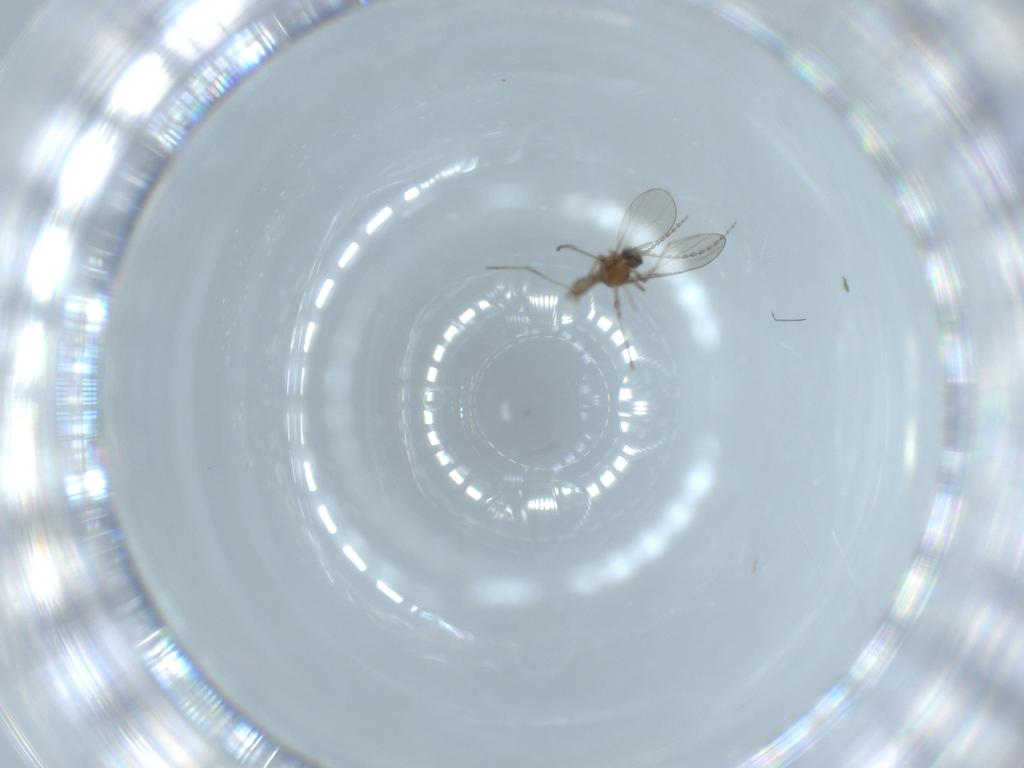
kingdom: Animalia
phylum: Arthropoda
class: Insecta
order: Diptera
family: Cecidomyiidae
